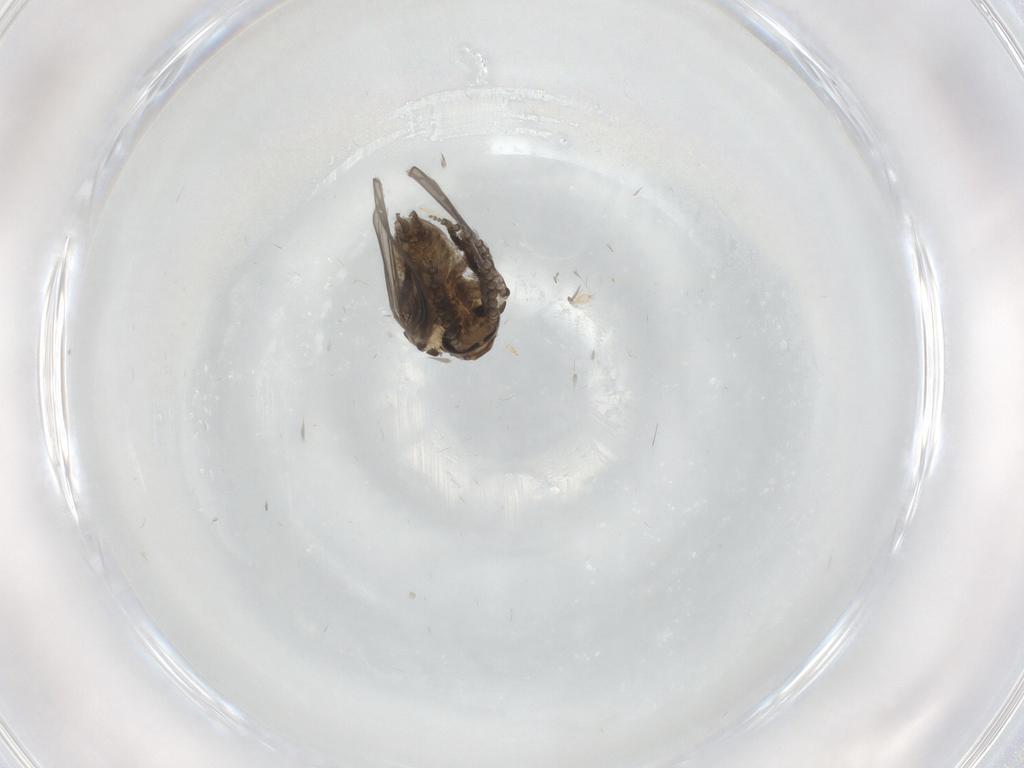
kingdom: Animalia
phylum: Arthropoda
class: Insecta
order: Diptera
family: Psychodidae
